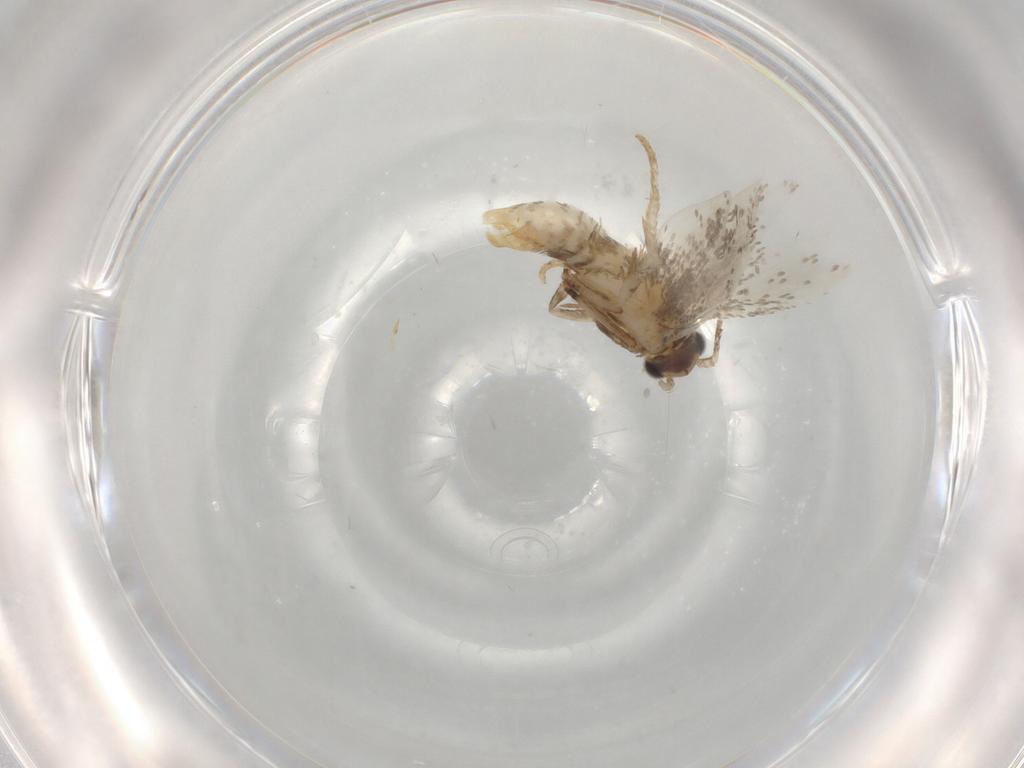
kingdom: Animalia
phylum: Arthropoda
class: Insecta
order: Lepidoptera
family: Tineidae
